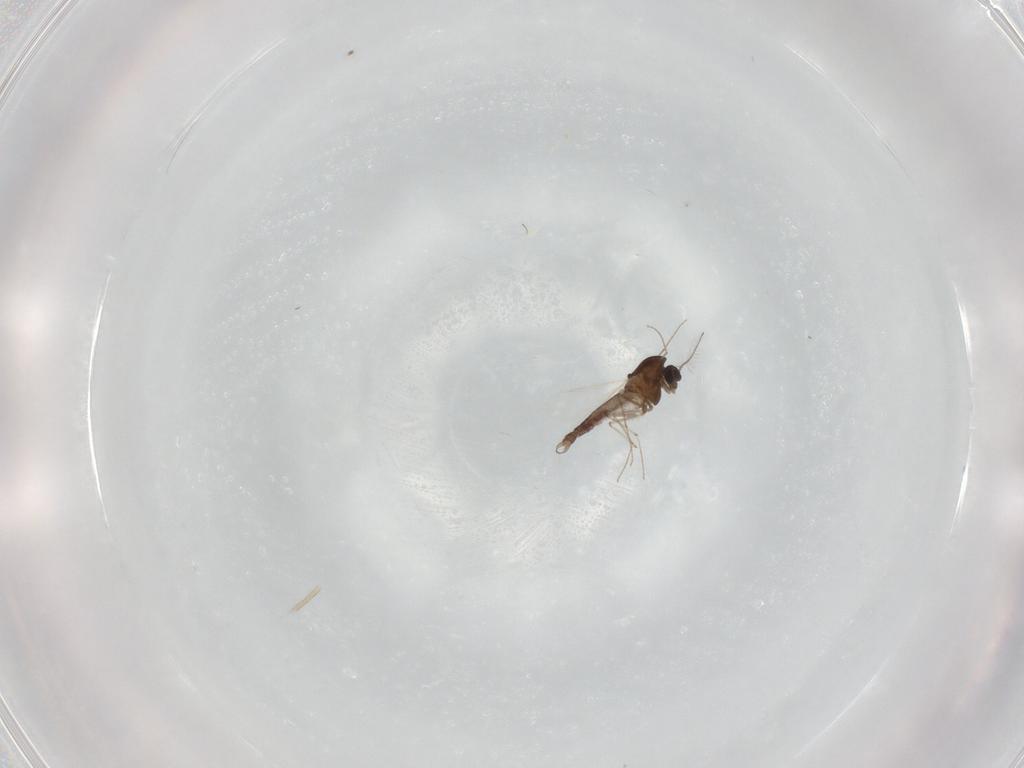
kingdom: Animalia
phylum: Arthropoda
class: Insecta
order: Diptera
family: Chironomidae
